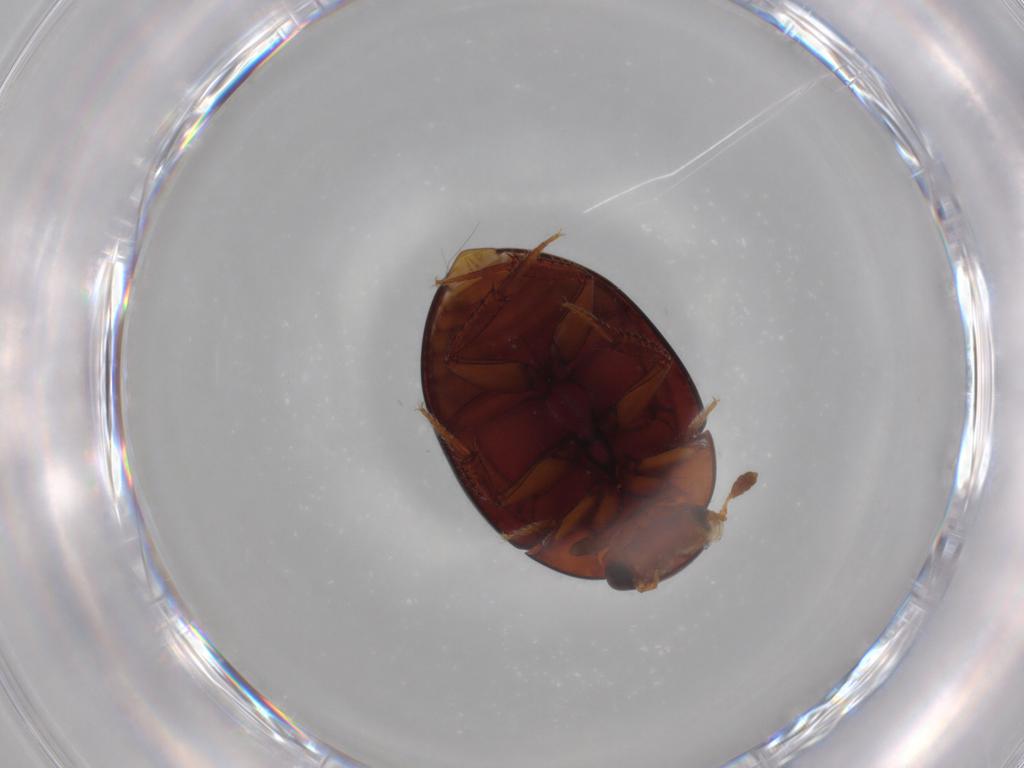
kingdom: Animalia
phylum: Arthropoda
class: Insecta
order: Coleoptera
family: Hydrophilidae
